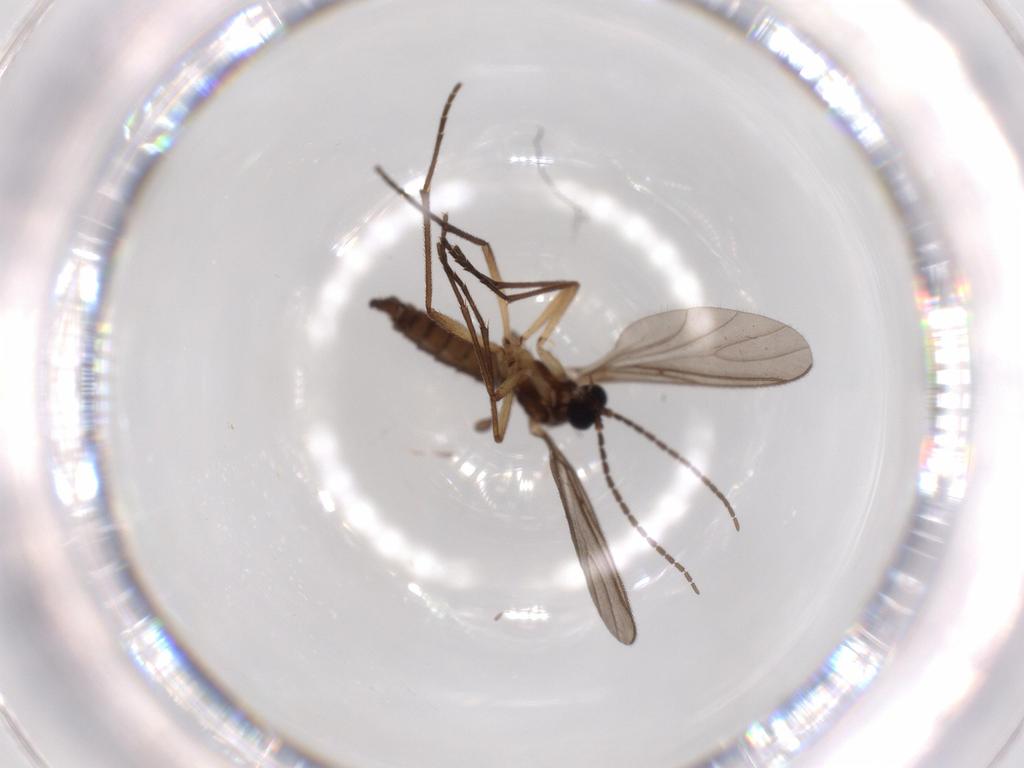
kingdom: Animalia
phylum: Arthropoda
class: Insecta
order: Diptera
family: Sciaridae
